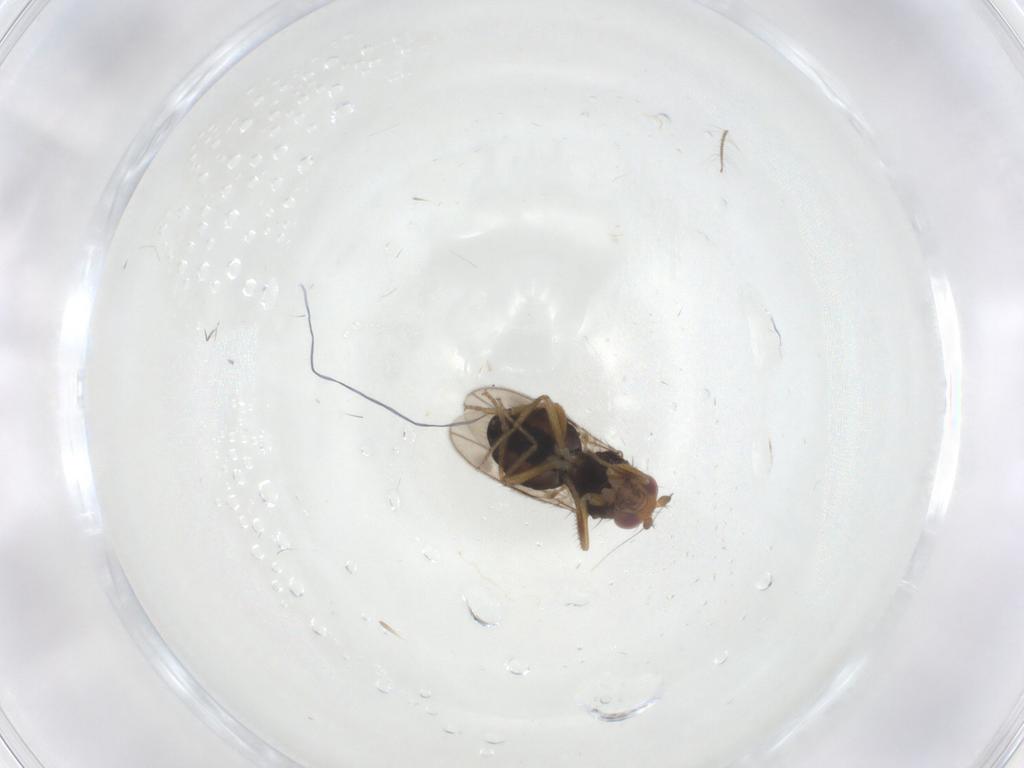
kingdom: Animalia
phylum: Arthropoda
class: Insecta
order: Diptera
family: Sphaeroceridae
